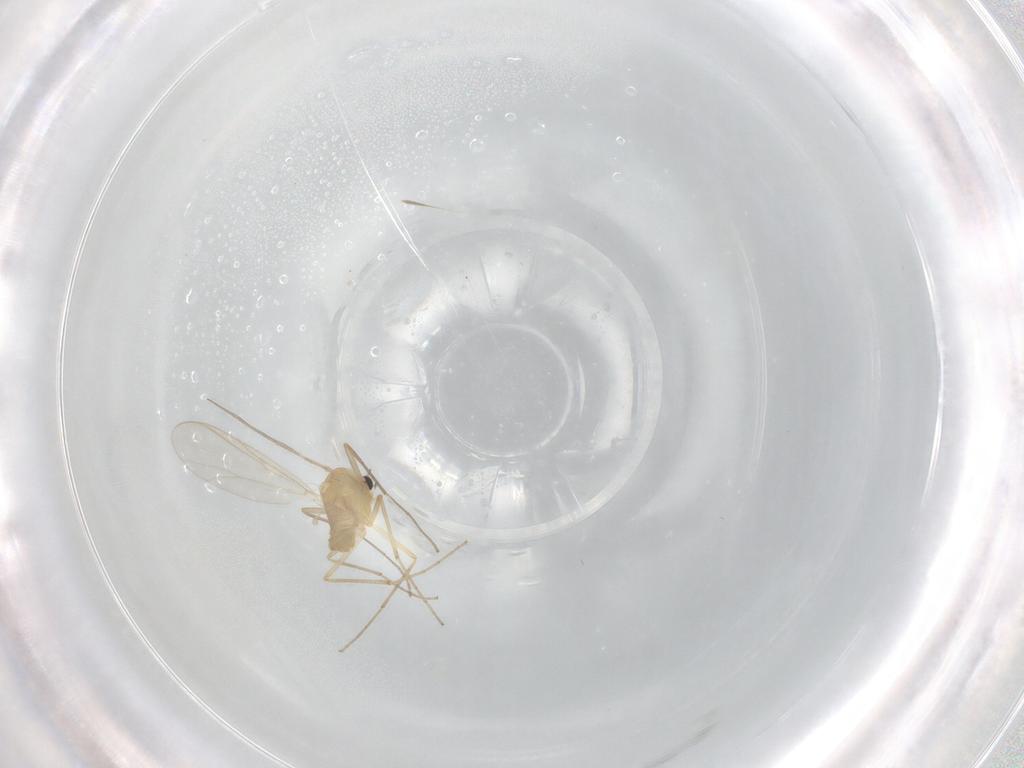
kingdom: Animalia
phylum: Arthropoda
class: Insecta
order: Diptera
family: Chironomidae
